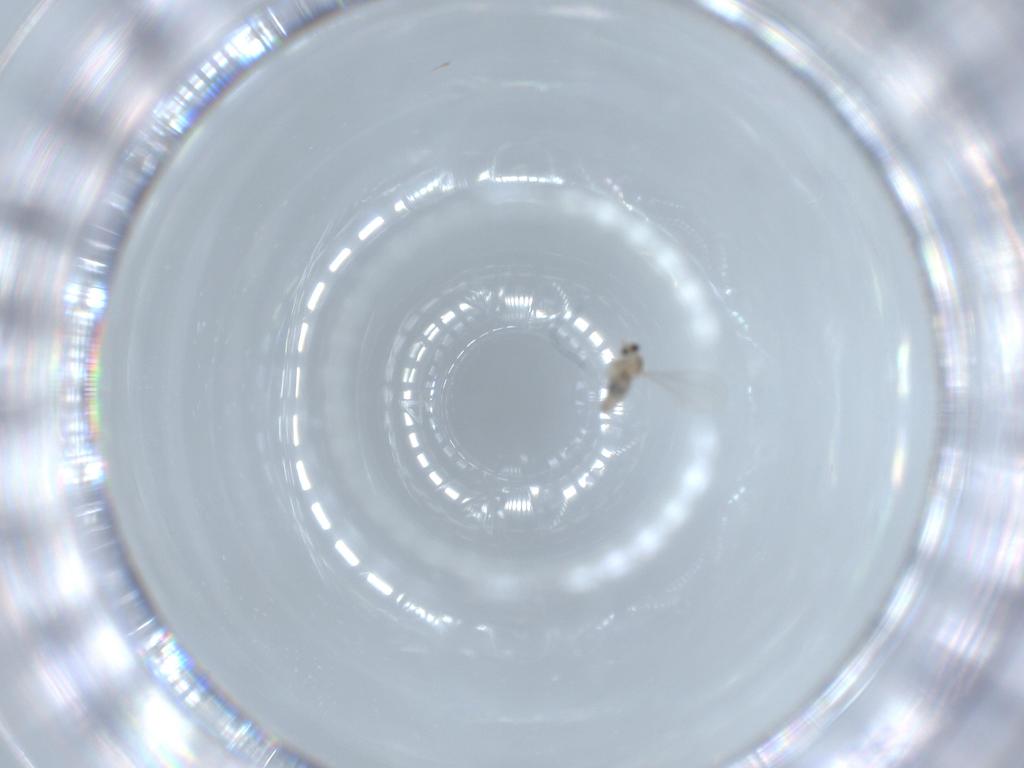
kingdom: Animalia
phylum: Arthropoda
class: Insecta
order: Diptera
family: Cecidomyiidae
